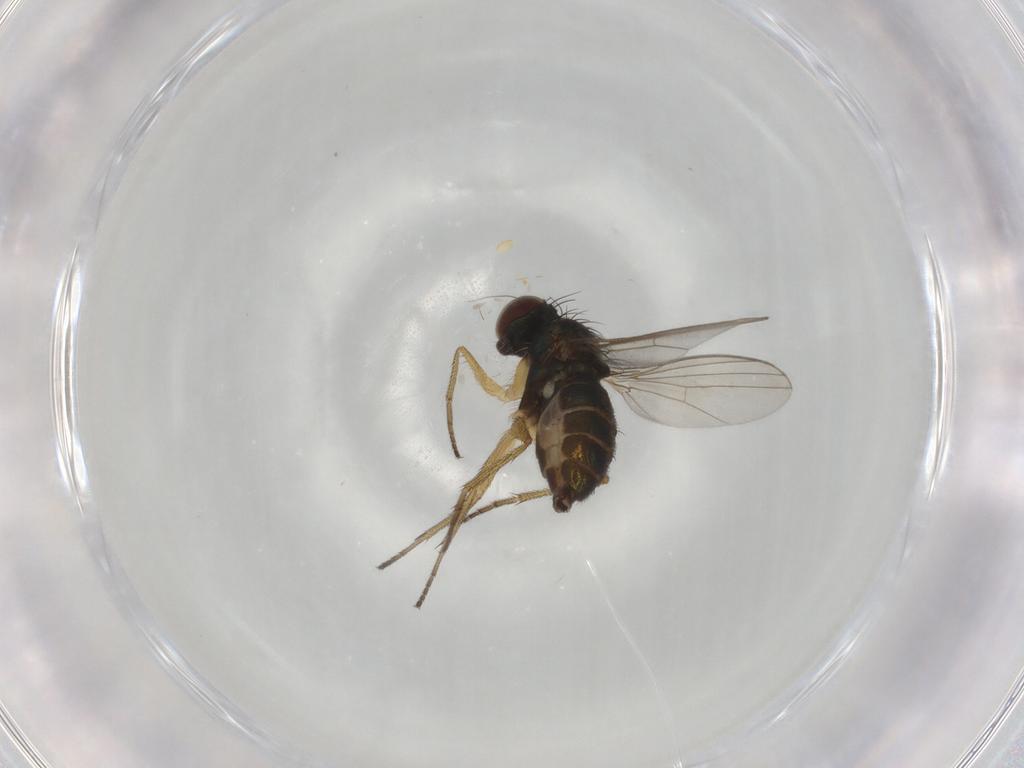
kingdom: Animalia
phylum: Arthropoda
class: Insecta
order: Diptera
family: Dolichopodidae
